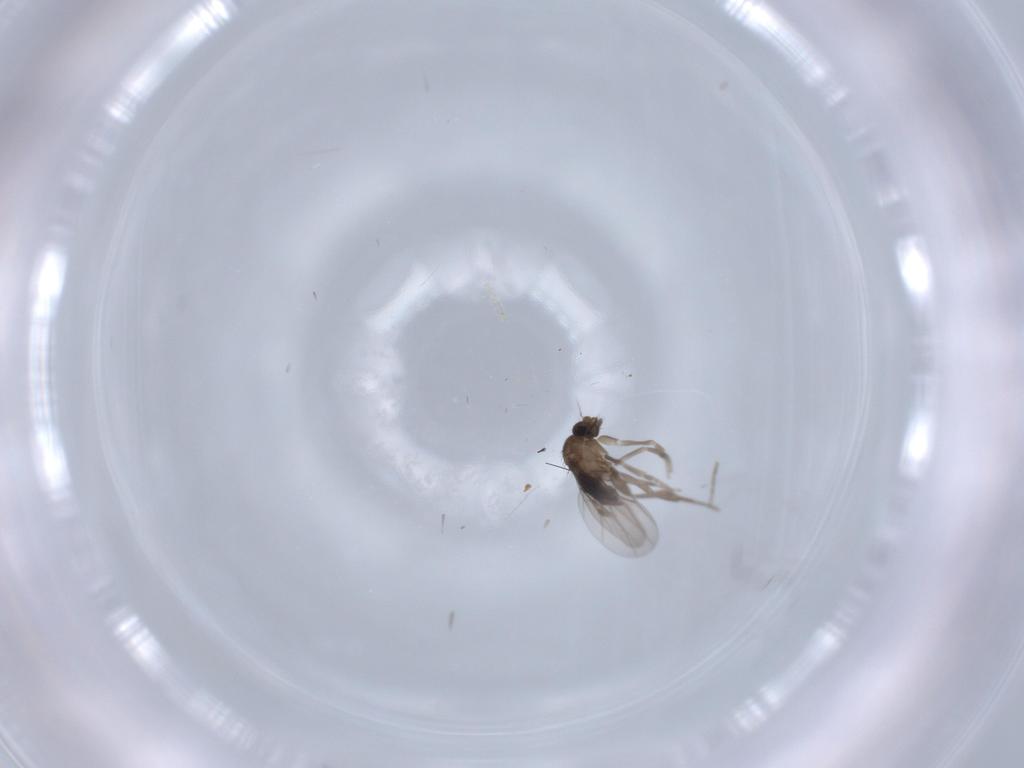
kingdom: Animalia
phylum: Arthropoda
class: Insecta
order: Diptera
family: Phoridae
